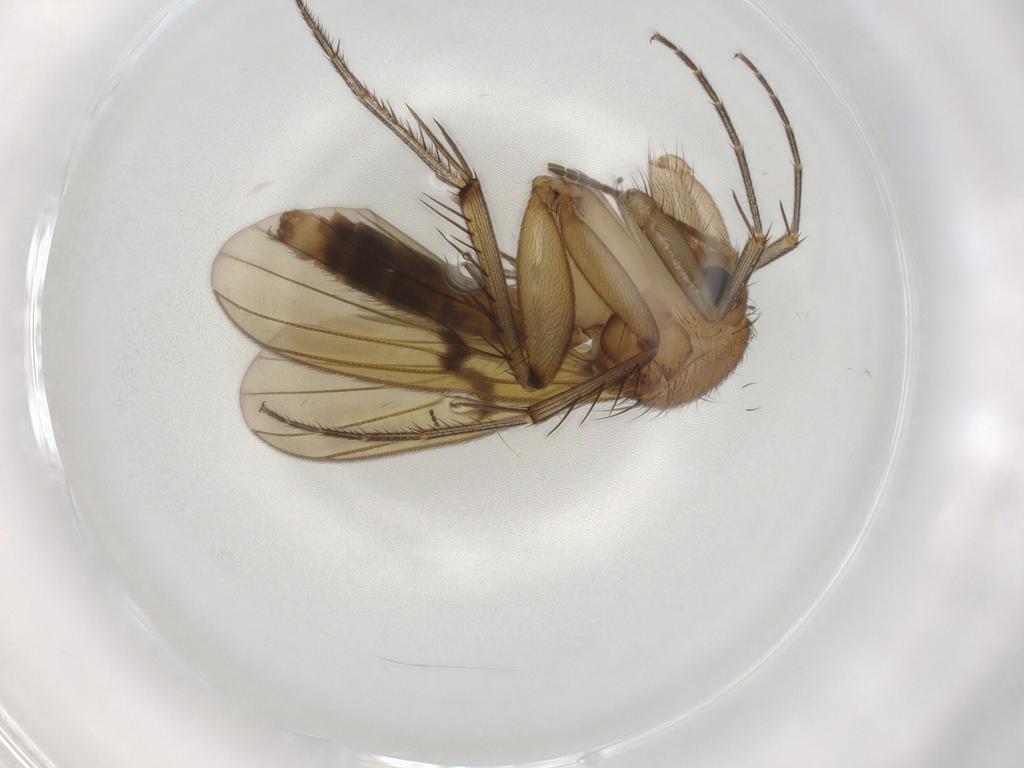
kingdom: Animalia
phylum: Arthropoda
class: Insecta
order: Diptera
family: Mycetophilidae
